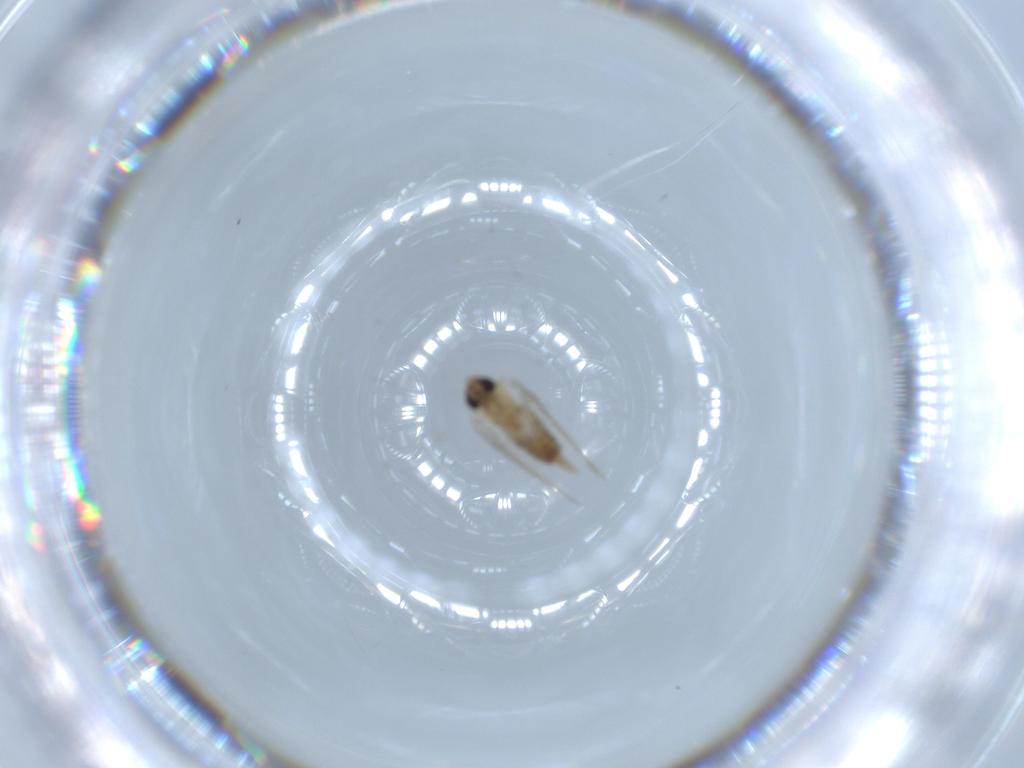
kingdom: Animalia
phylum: Arthropoda
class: Insecta
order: Diptera
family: Psychodidae
